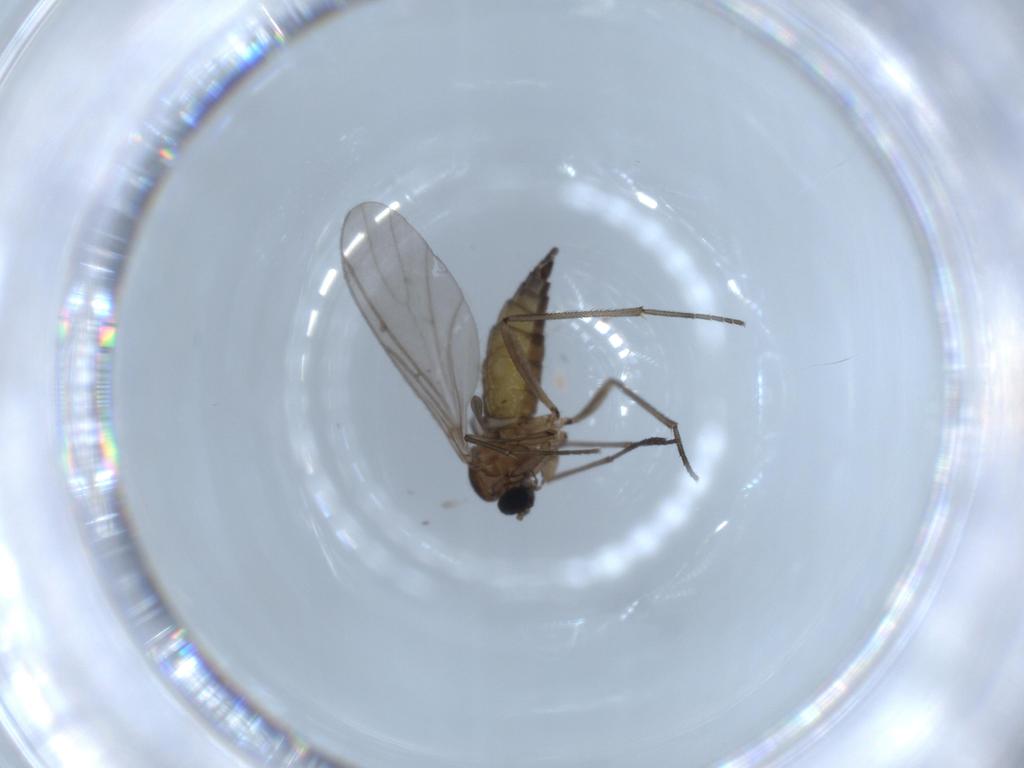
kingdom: Animalia
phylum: Arthropoda
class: Insecta
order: Diptera
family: Sciaridae
